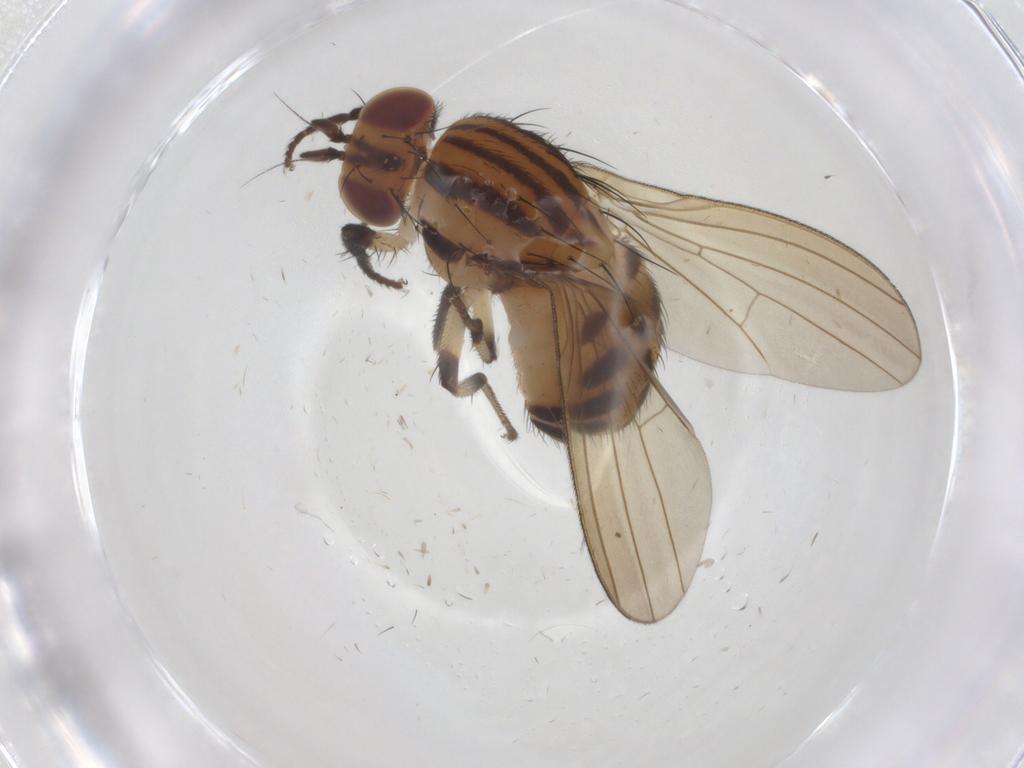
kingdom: Animalia
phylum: Arthropoda
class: Insecta
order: Diptera
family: Lauxaniidae
